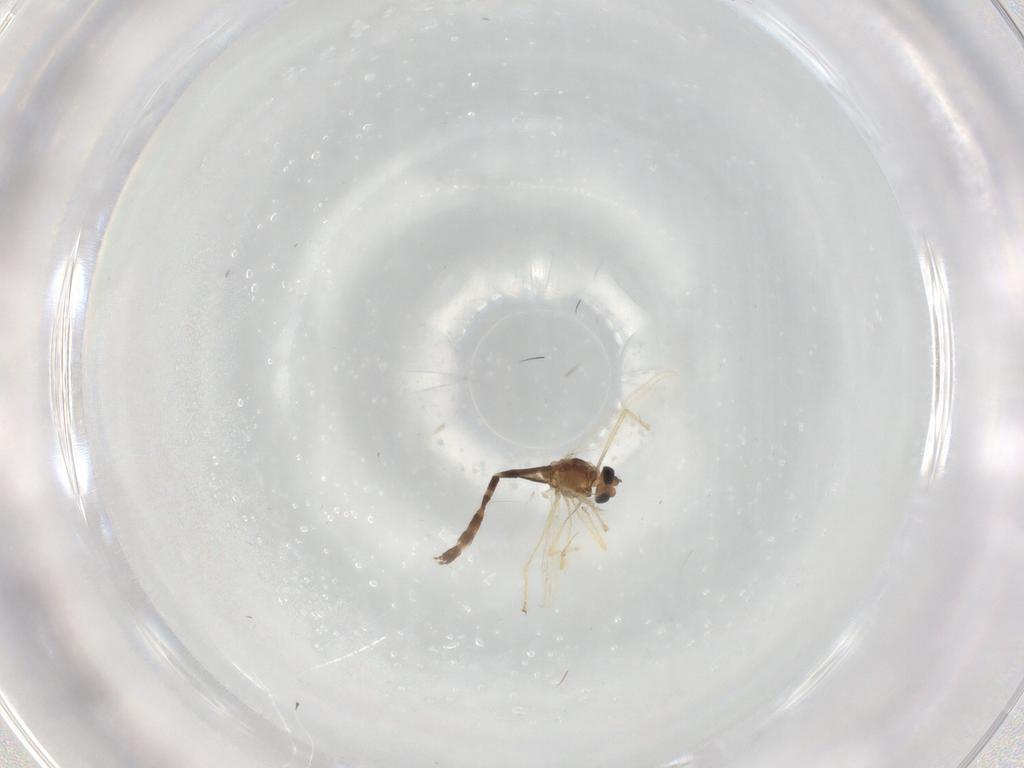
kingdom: Animalia
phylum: Arthropoda
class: Insecta
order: Diptera
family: Chironomidae
